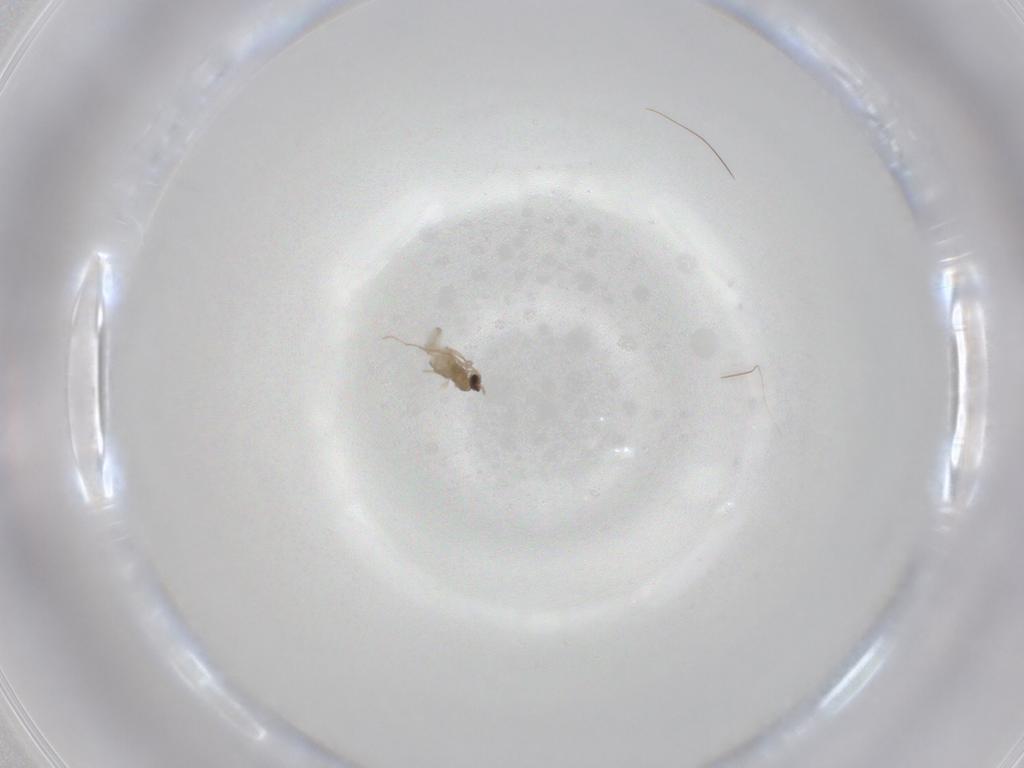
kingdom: Animalia
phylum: Arthropoda
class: Insecta
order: Diptera
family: Cecidomyiidae
